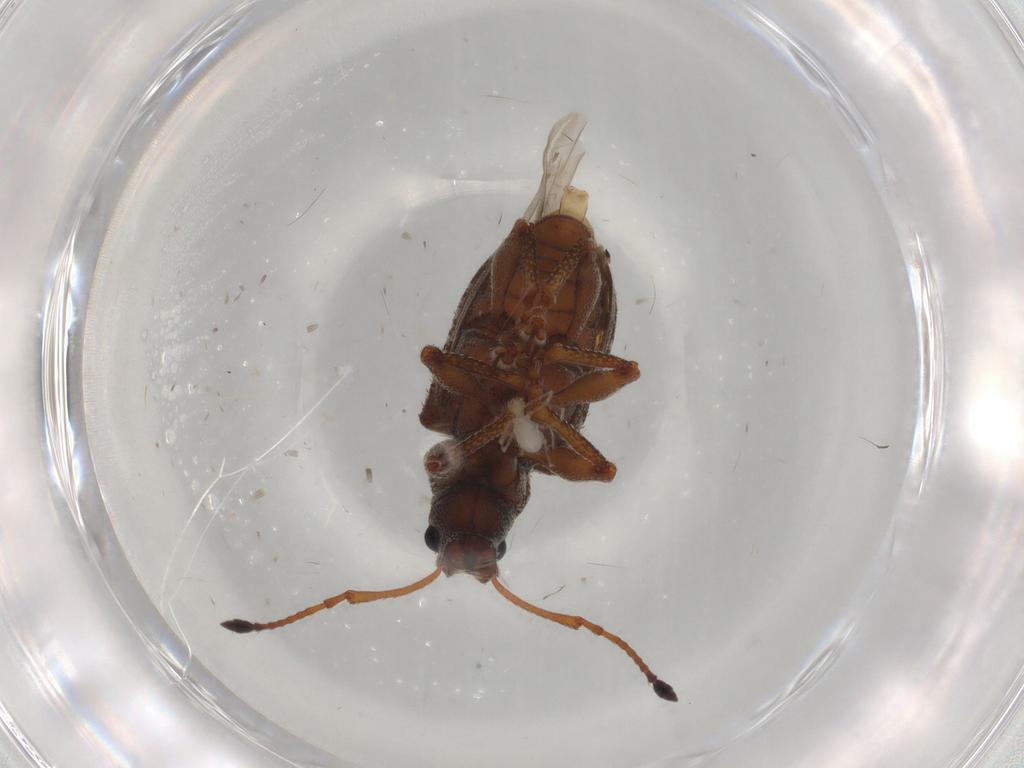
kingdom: Animalia
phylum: Arthropoda
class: Insecta
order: Coleoptera
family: Curculionidae
